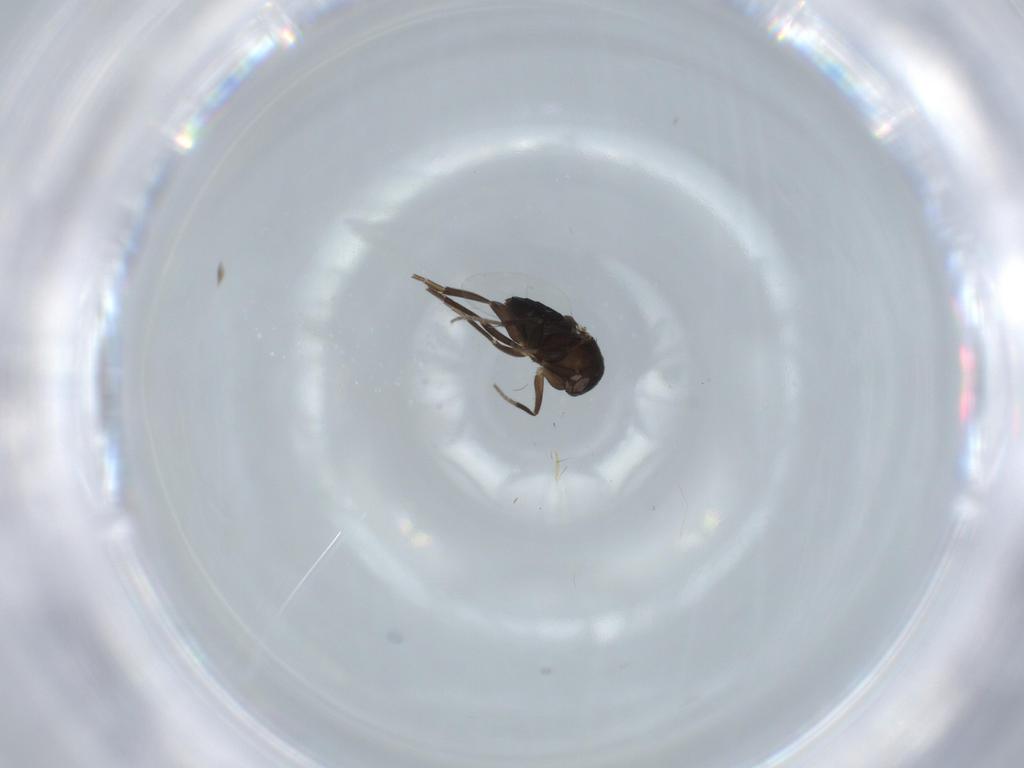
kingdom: Animalia
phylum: Arthropoda
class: Insecta
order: Diptera
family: Phoridae
